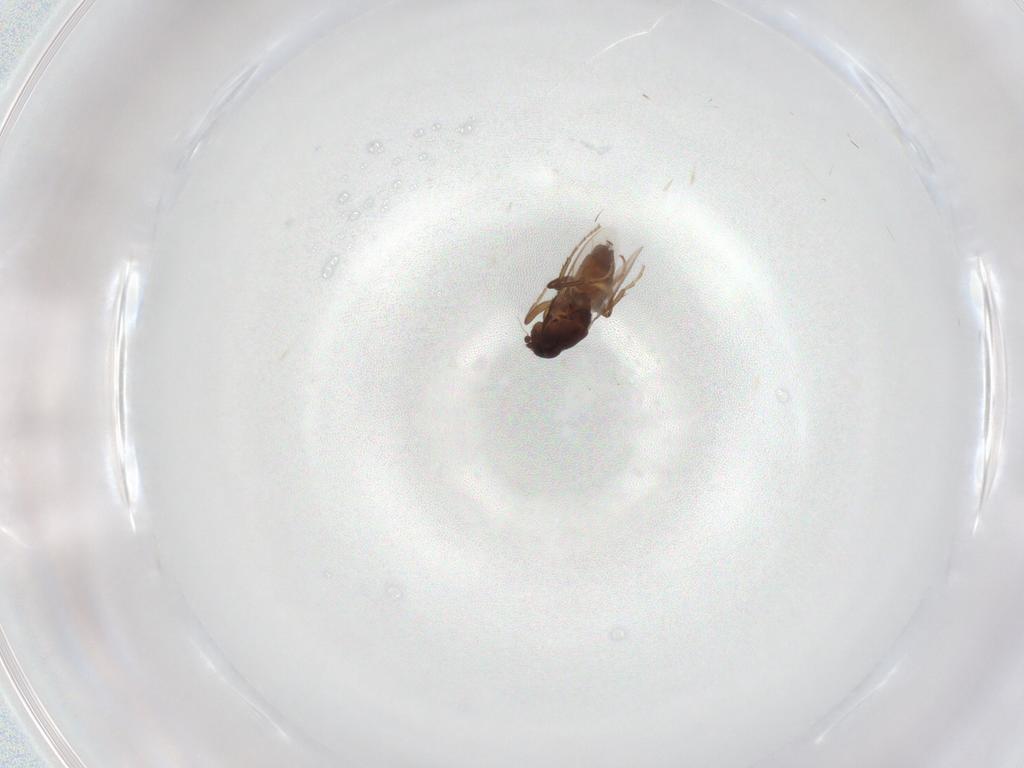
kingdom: Animalia
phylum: Arthropoda
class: Insecta
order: Diptera
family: Sphaeroceridae
